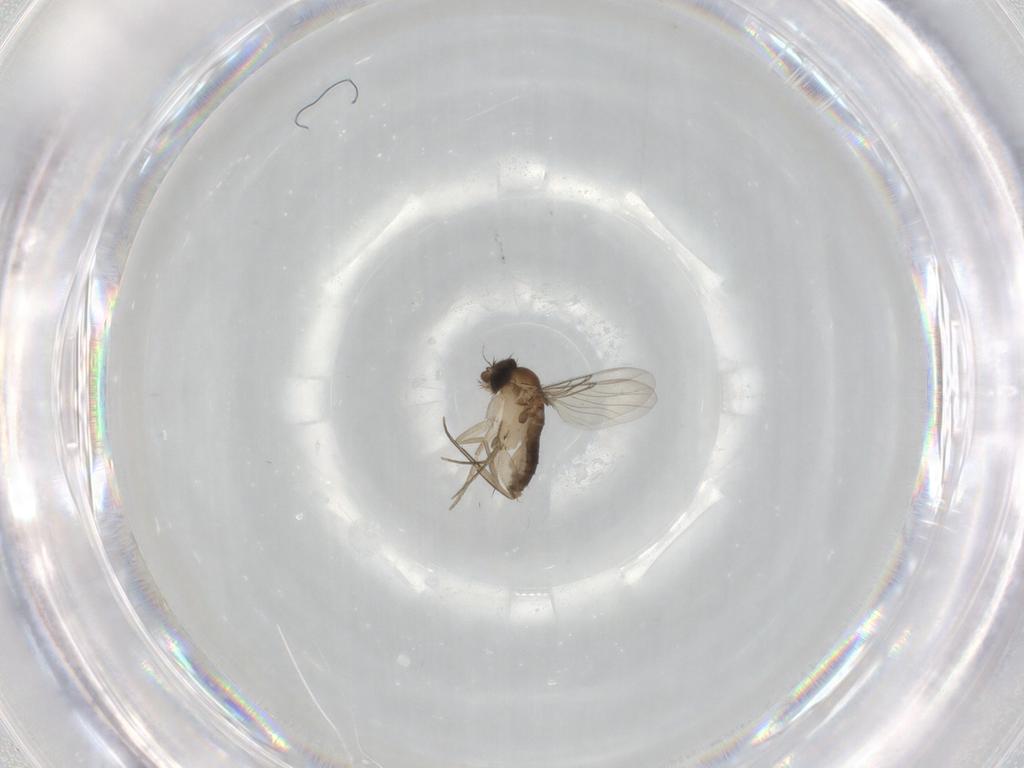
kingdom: Animalia
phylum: Arthropoda
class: Insecta
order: Diptera
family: Phoridae
